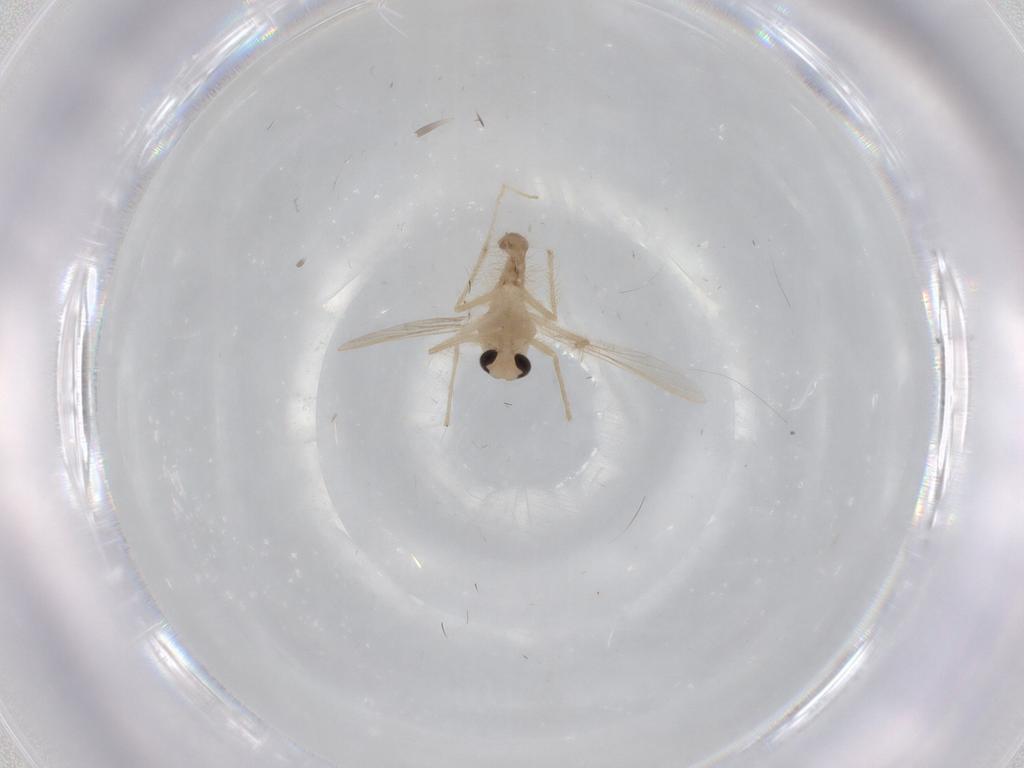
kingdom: Animalia
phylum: Arthropoda
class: Insecta
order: Diptera
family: Chironomidae
